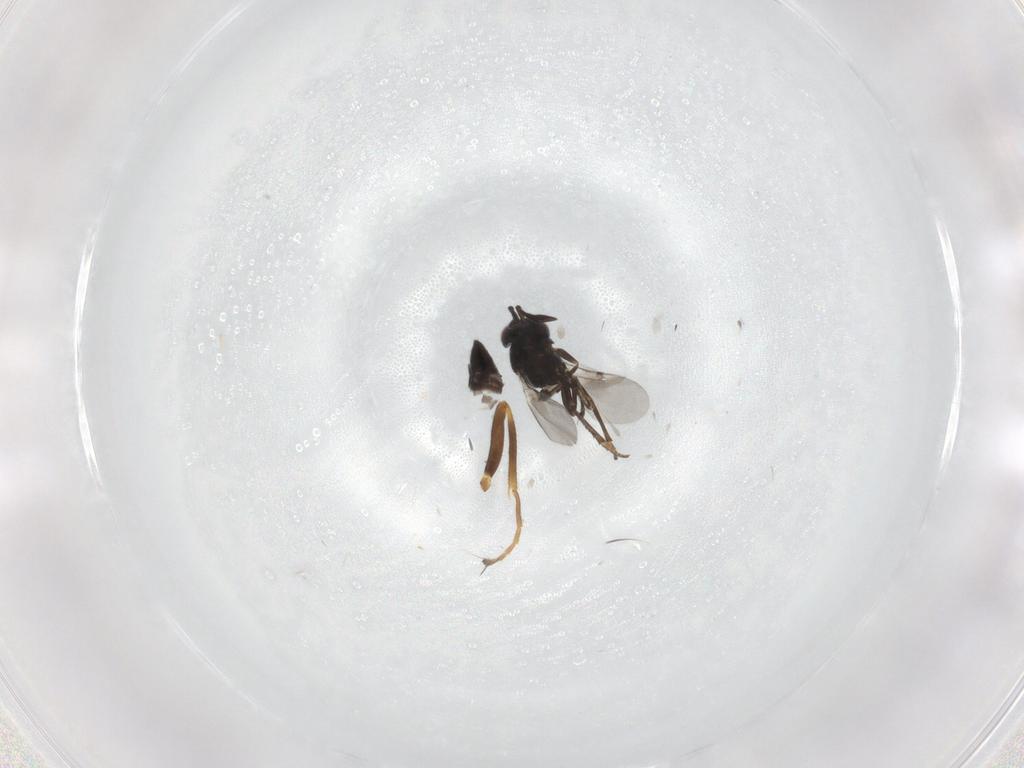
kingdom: Animalia
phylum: Arthropoda
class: Insecta
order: Hymenoptera
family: Braconidae
